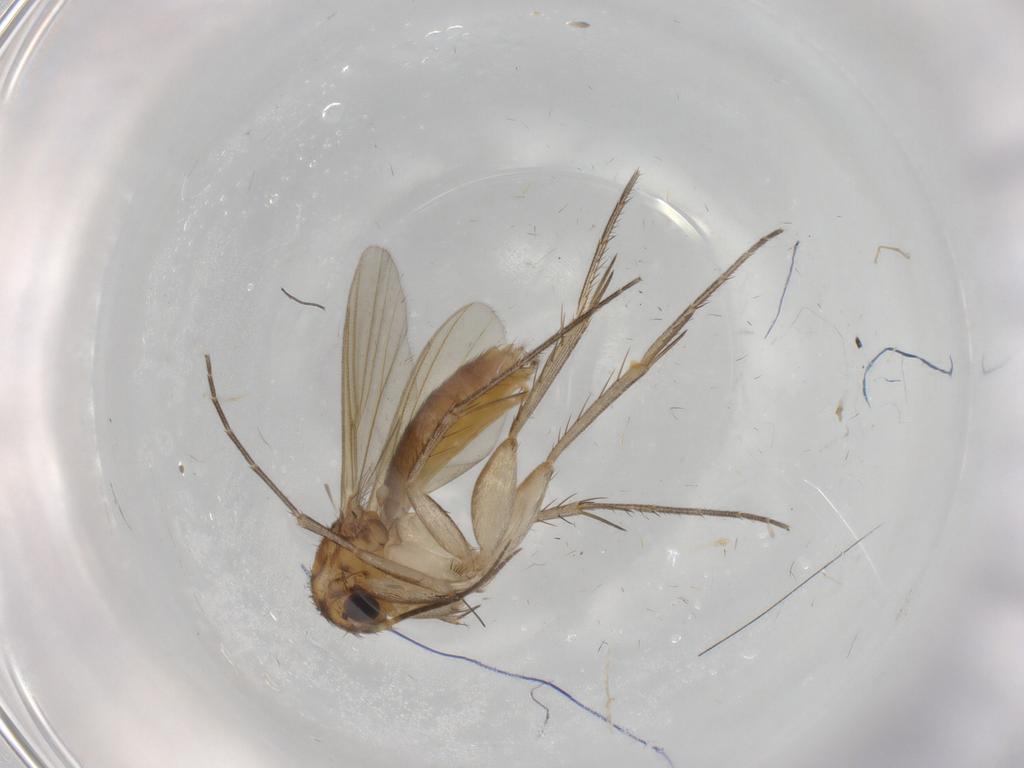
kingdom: Animalia
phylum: Arthropoda
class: Insecta
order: Diptera
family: Mycetophilidae
